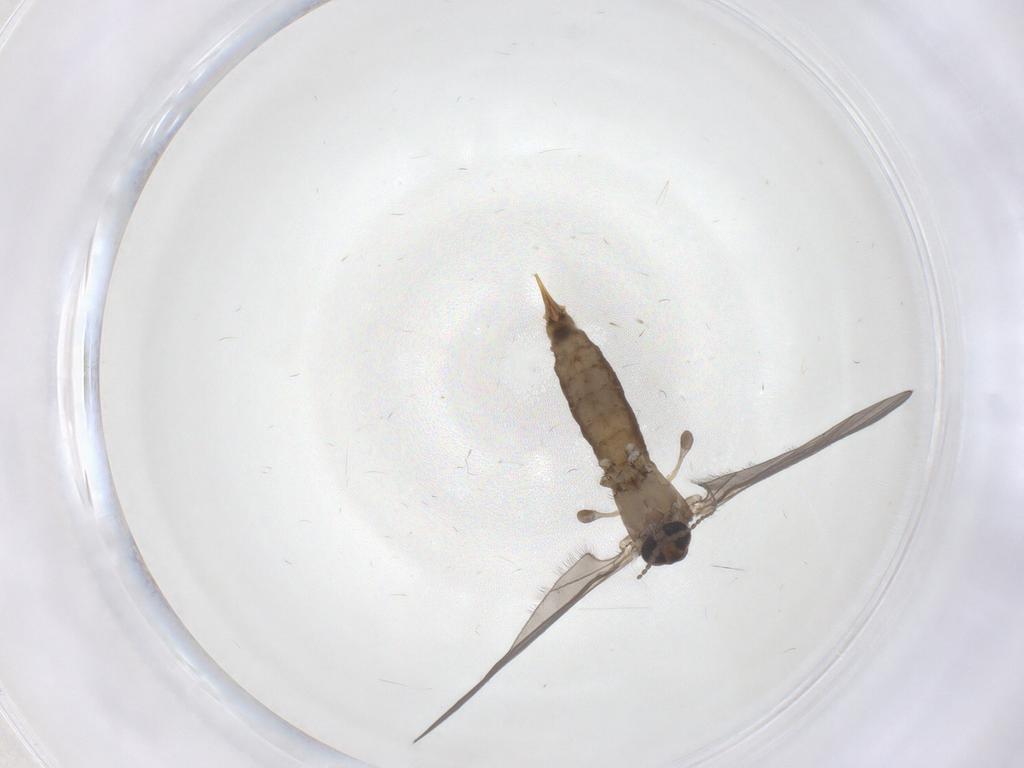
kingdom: Animalia
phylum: Arthropoda
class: Insecta
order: Diptera
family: Limoniidae
